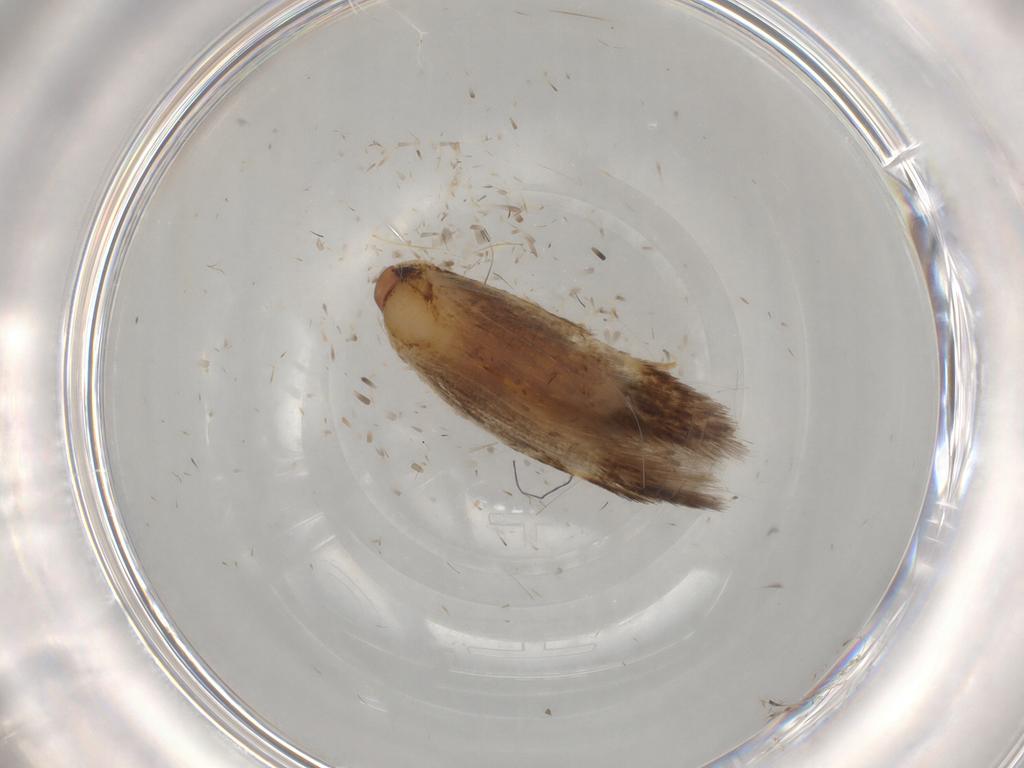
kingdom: Animalia
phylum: Arthropoda
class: Insecta
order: Lepidoptera
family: Cosmopterigidae
